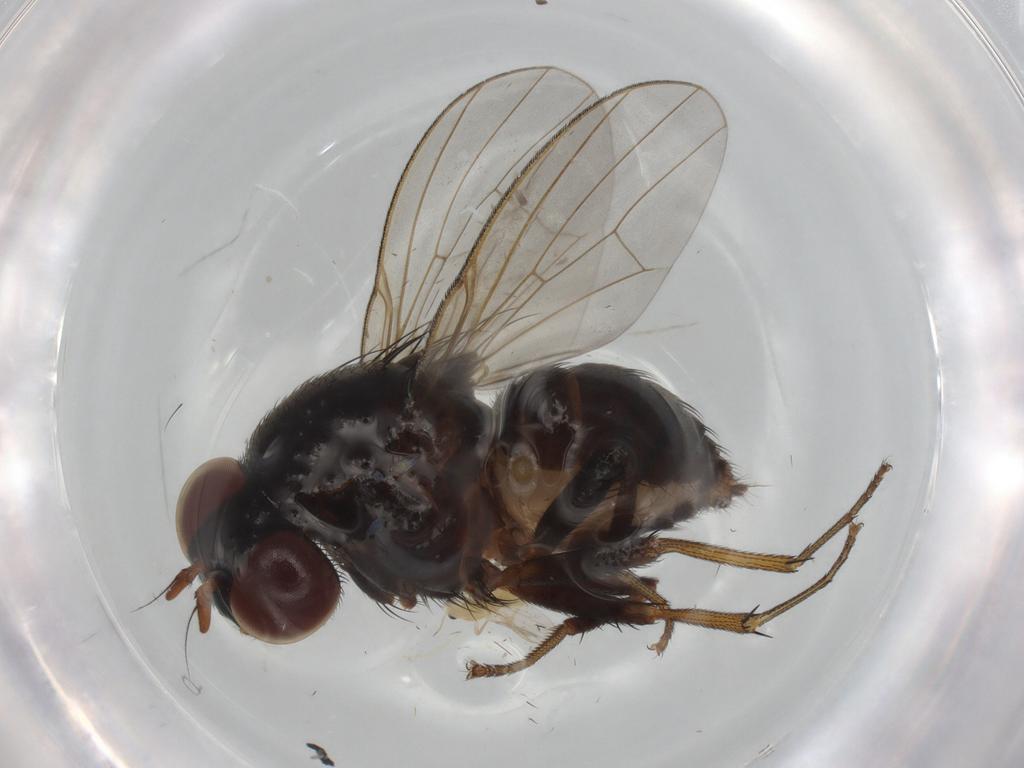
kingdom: Animalia
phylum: Arthropoda
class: Insecta
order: Diptera
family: Chironomidae
